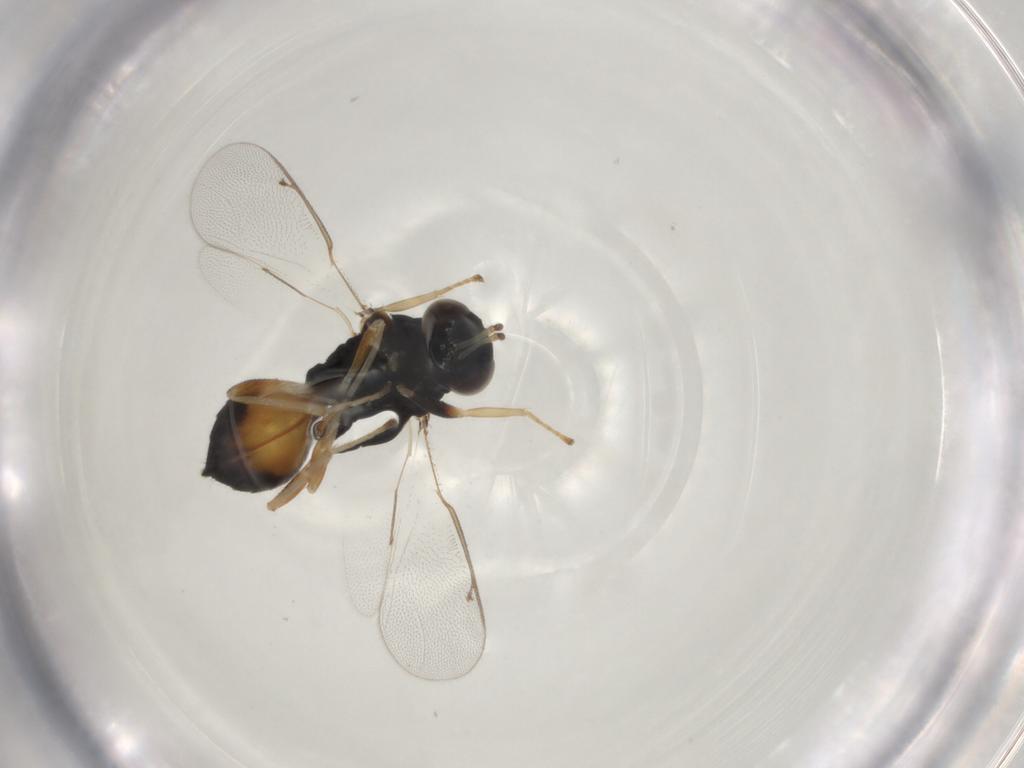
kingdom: Animalia
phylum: Arthropoda
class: Insecta
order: Hymenoptera
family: Eulophidae
